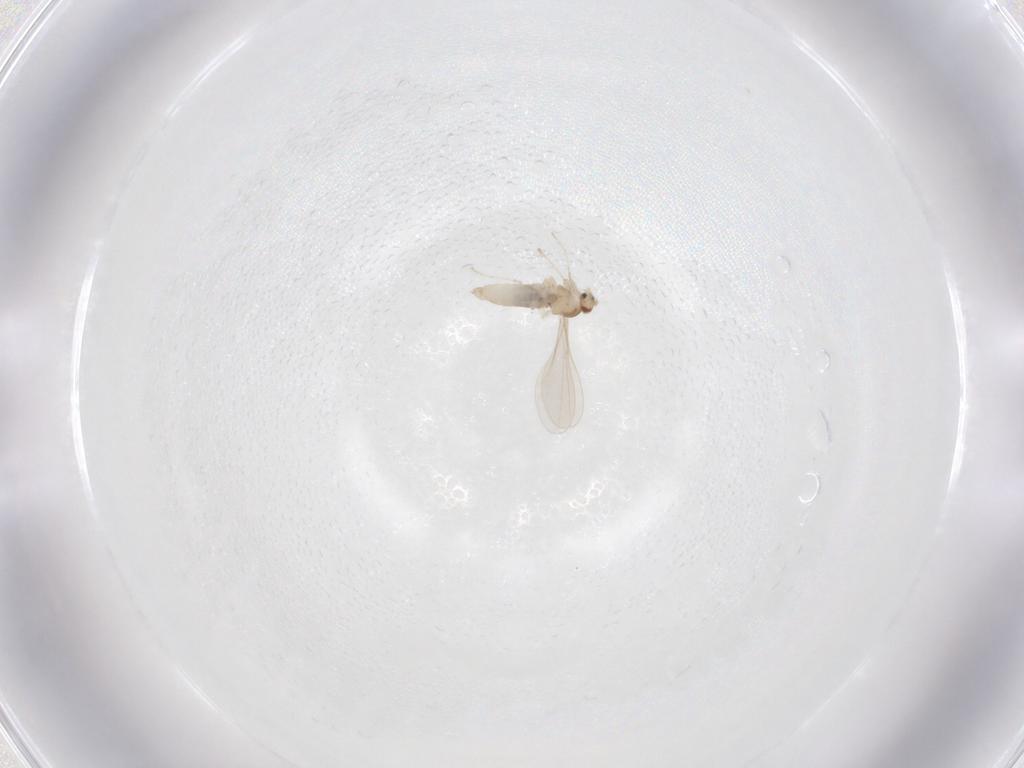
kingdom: Animalia
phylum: Arthropoda
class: Insecta
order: Diptera
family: Cecidomyiidae
